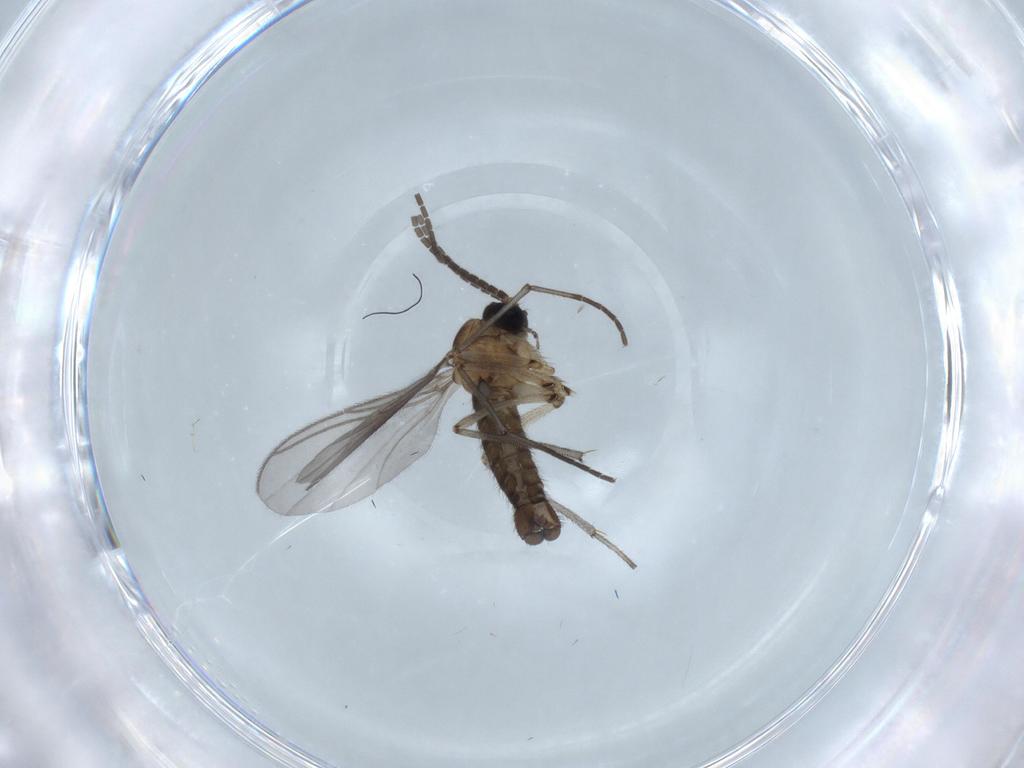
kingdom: Animalia
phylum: Arthropoda
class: Insecta
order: Diptera
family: Sciaridae
